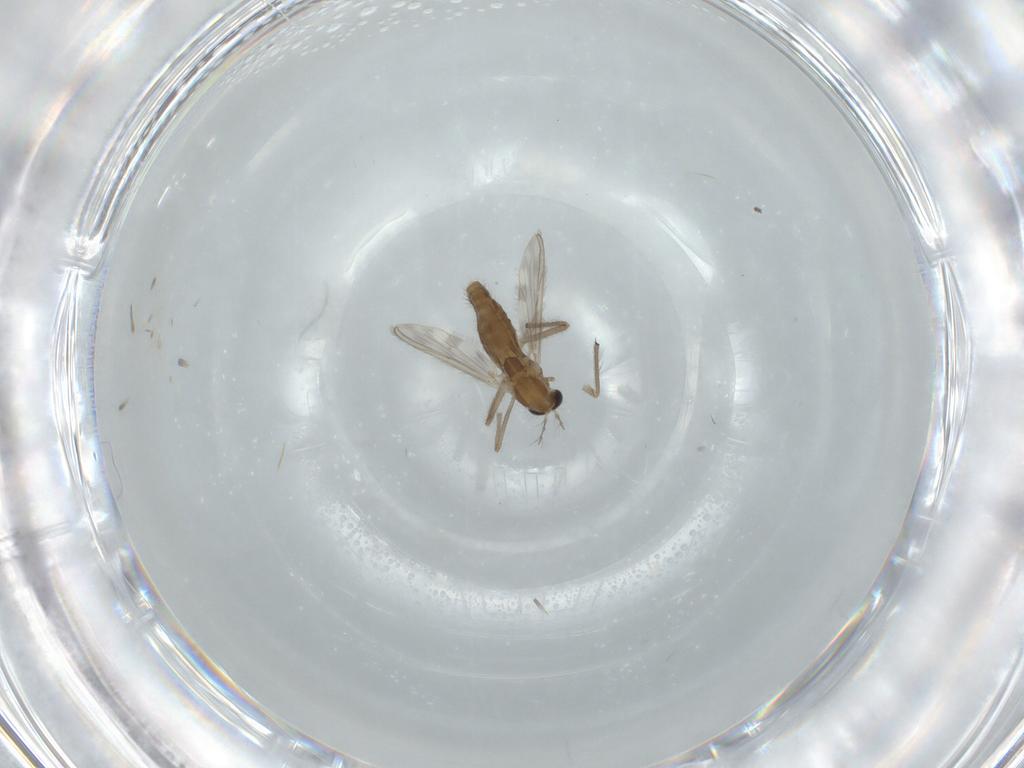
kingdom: Animalia
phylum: Arthropoda
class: Insecta
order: Diptera
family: Chironomidae
